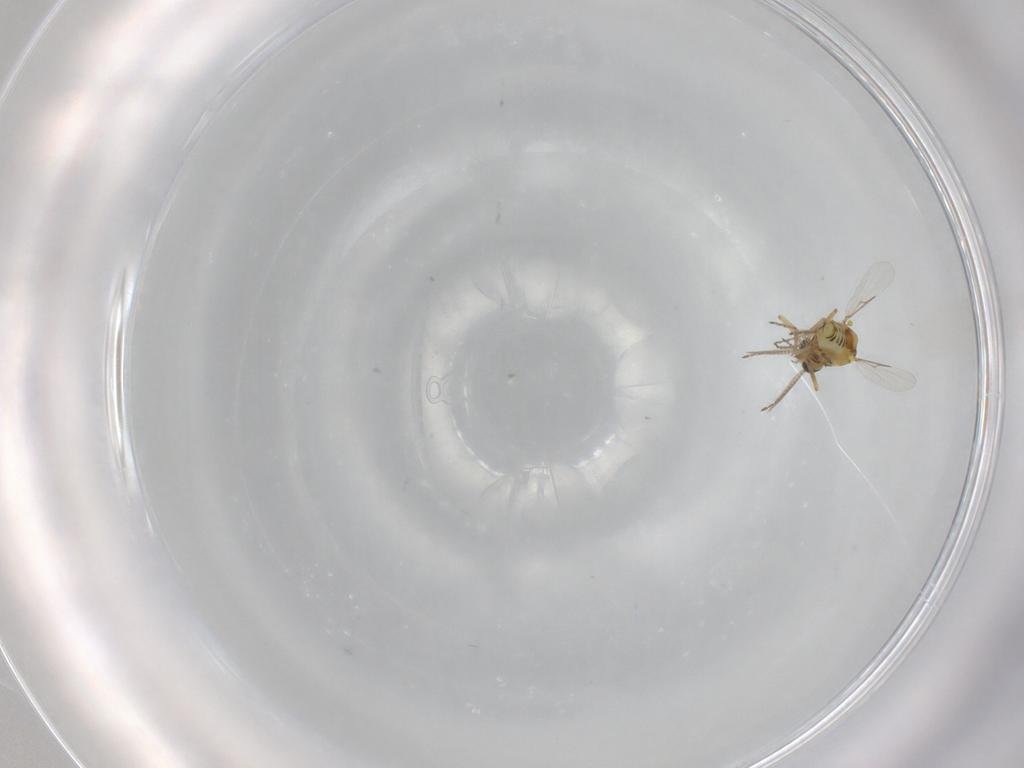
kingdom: Animalia
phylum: Arthropoda
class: Insecta
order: Diptera
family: Ceratopogonidae
